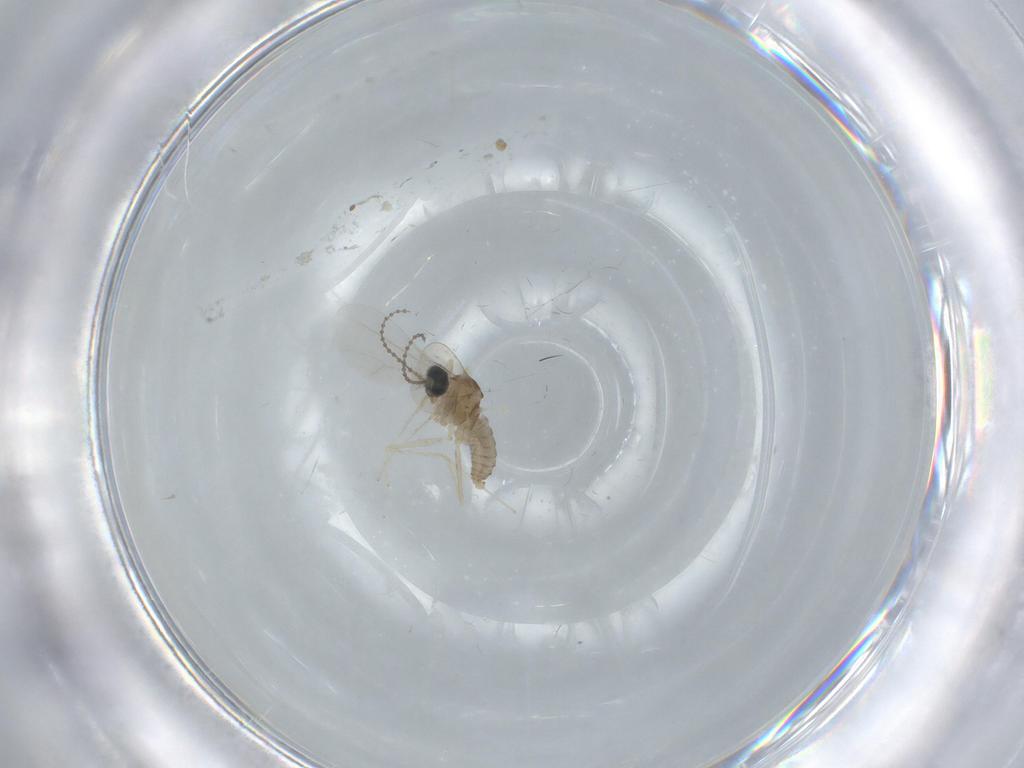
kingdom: Animalia
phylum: Arthropoda
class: Insecta
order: Diptera
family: Cecidomyiidae
